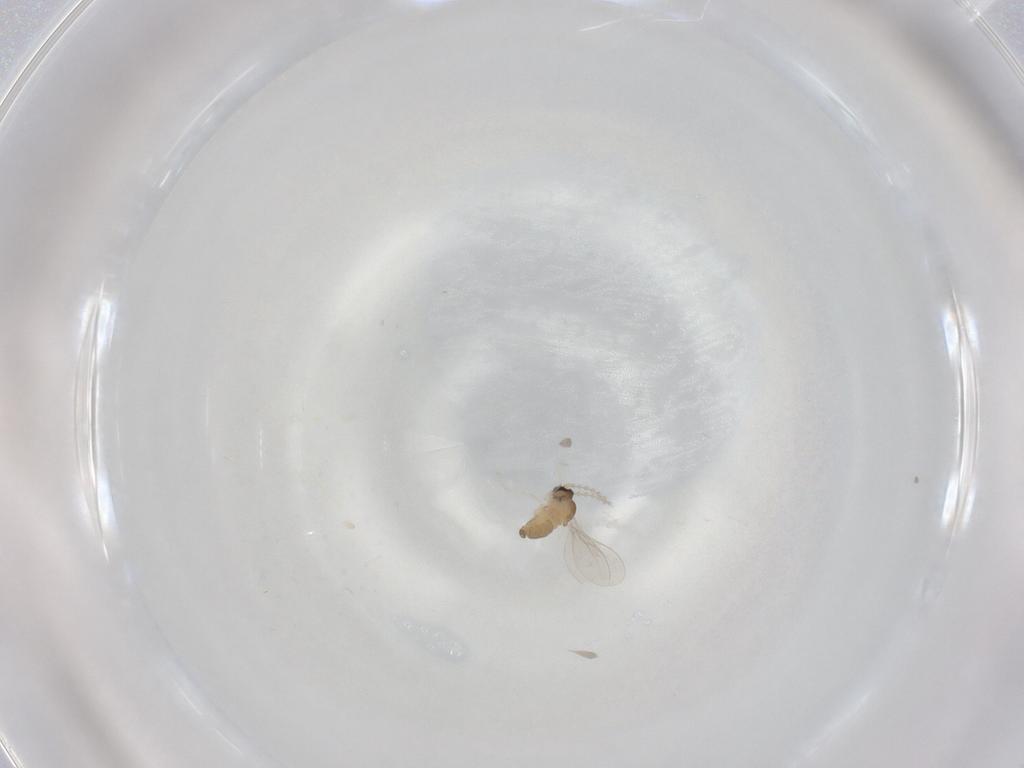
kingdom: Animalia
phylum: Arthropoda
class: Insecta
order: Diptera
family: Cecidomyiidae
